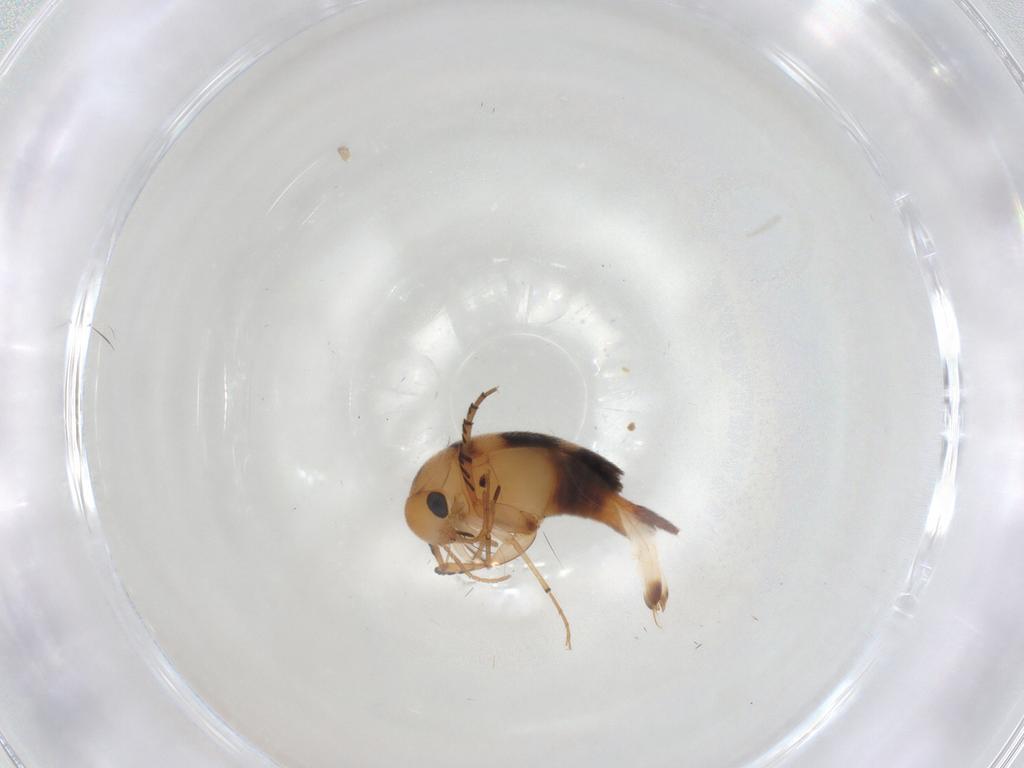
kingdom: Animalia
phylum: Arthropoda
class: Insecta
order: Coleoptera
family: Mordellidae
